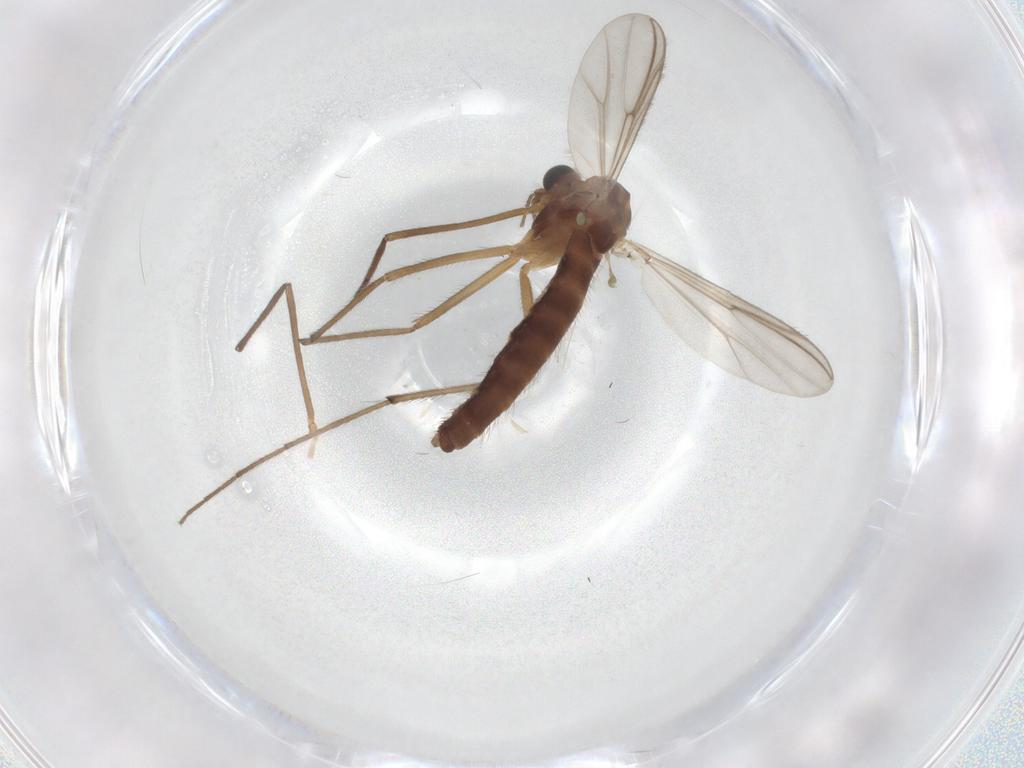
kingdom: Animalia
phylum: Arthropoda
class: Insecta
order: Diptera
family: Chironomidae
